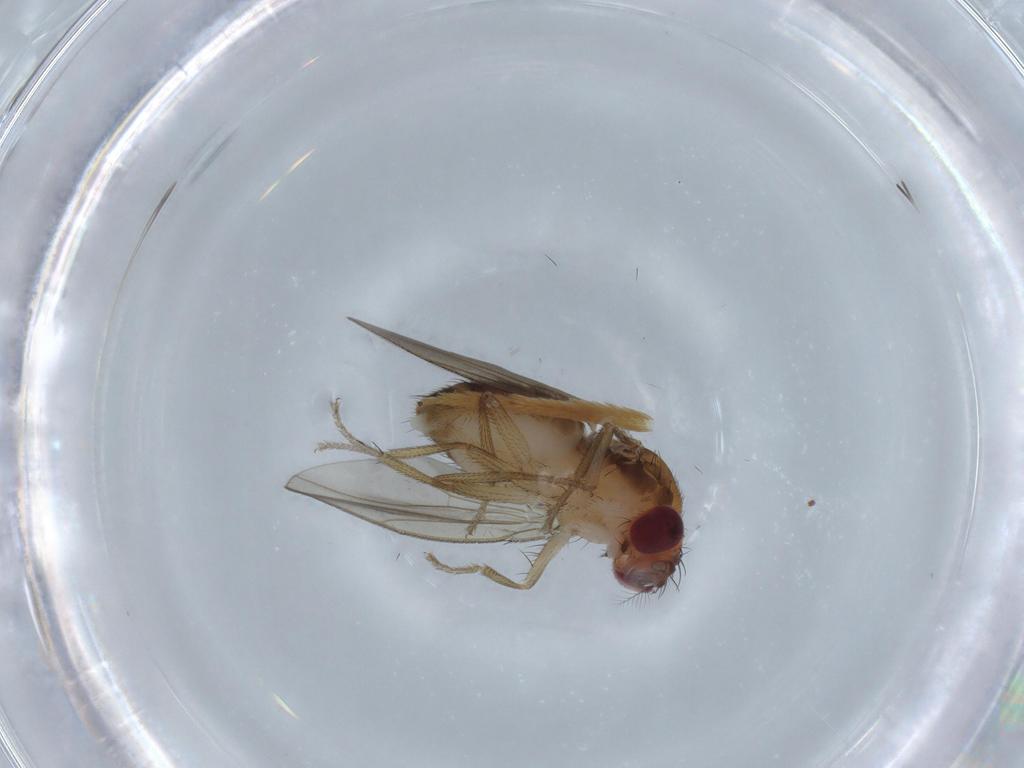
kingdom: Animalia
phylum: Arthropoda
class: Insecta
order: Diptera
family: Drosophilidae
